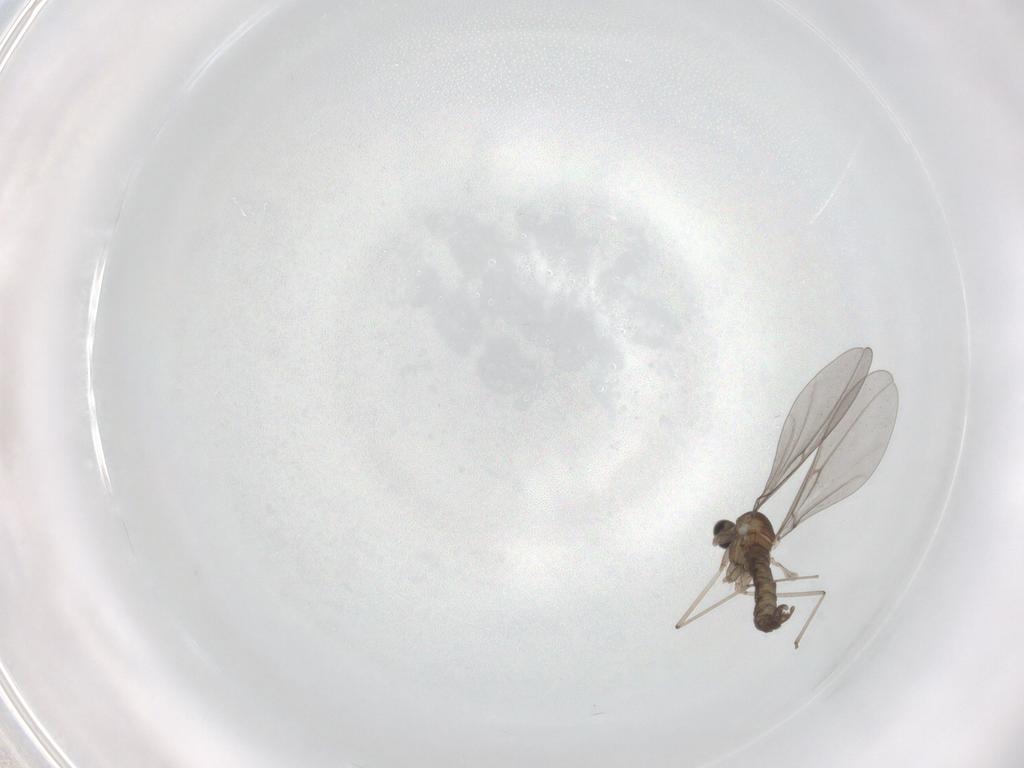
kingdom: Animalia
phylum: Arthropoda
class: Insecta
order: Diptera
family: Cecidomyiidae
